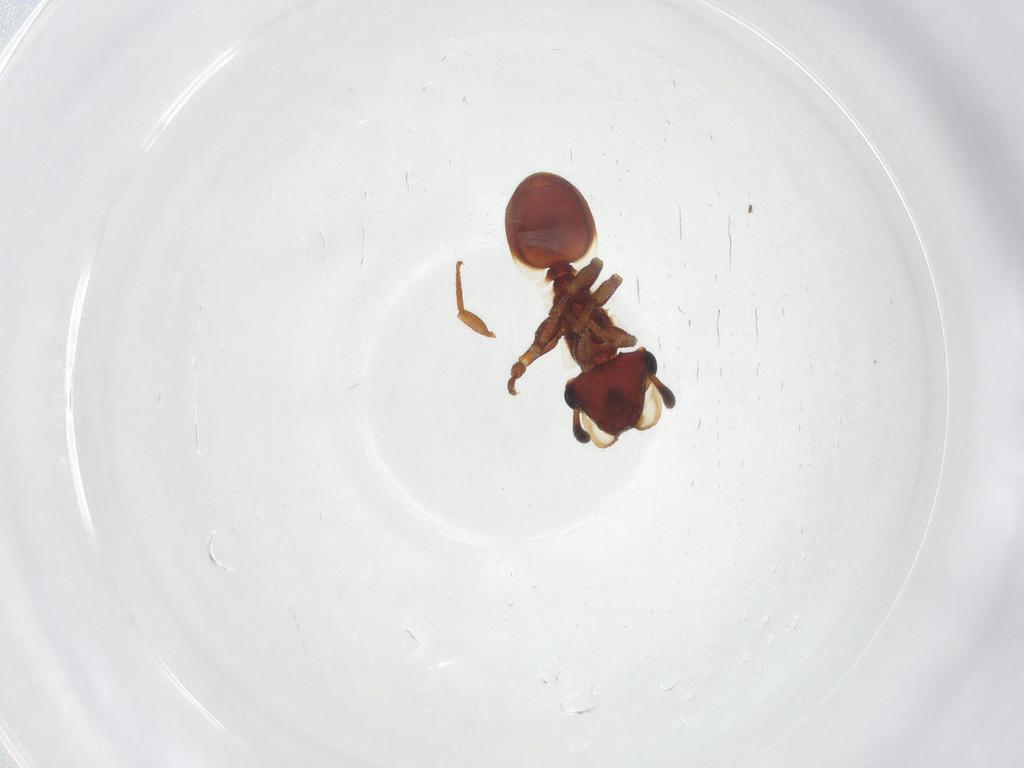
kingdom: Animalia
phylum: Arthropoda
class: Insecta
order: Hymenoptera
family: Formicidae
